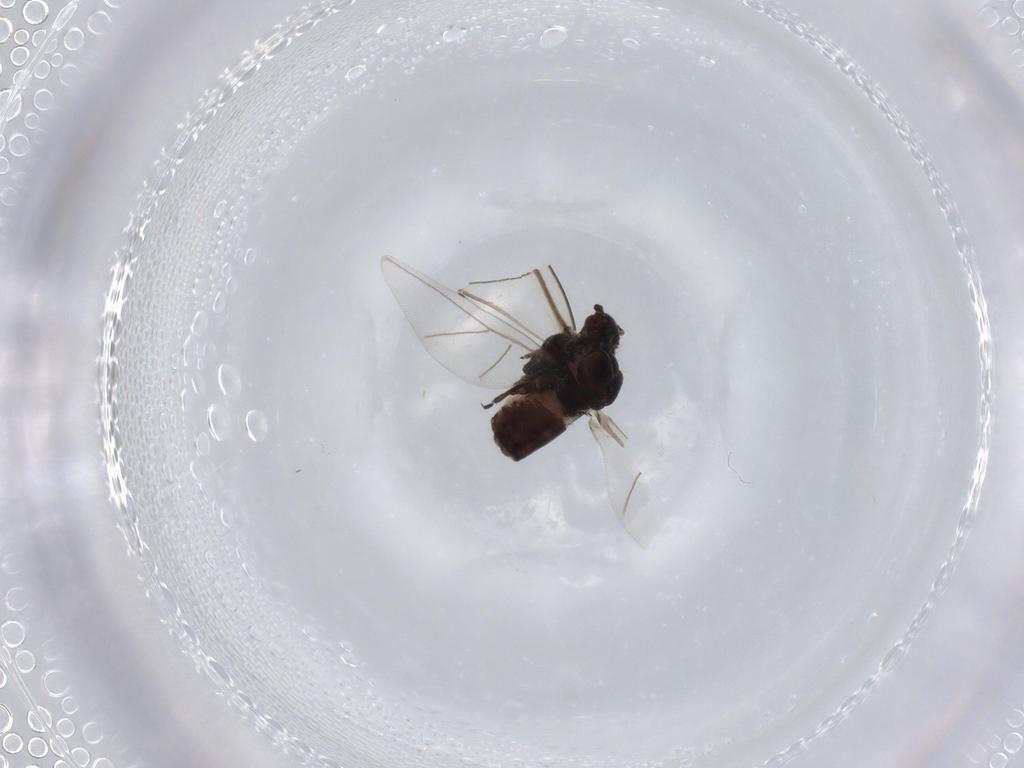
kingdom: Animalia
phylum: Arthropoda
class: Insecta
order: Hemiptera
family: Aphididae
